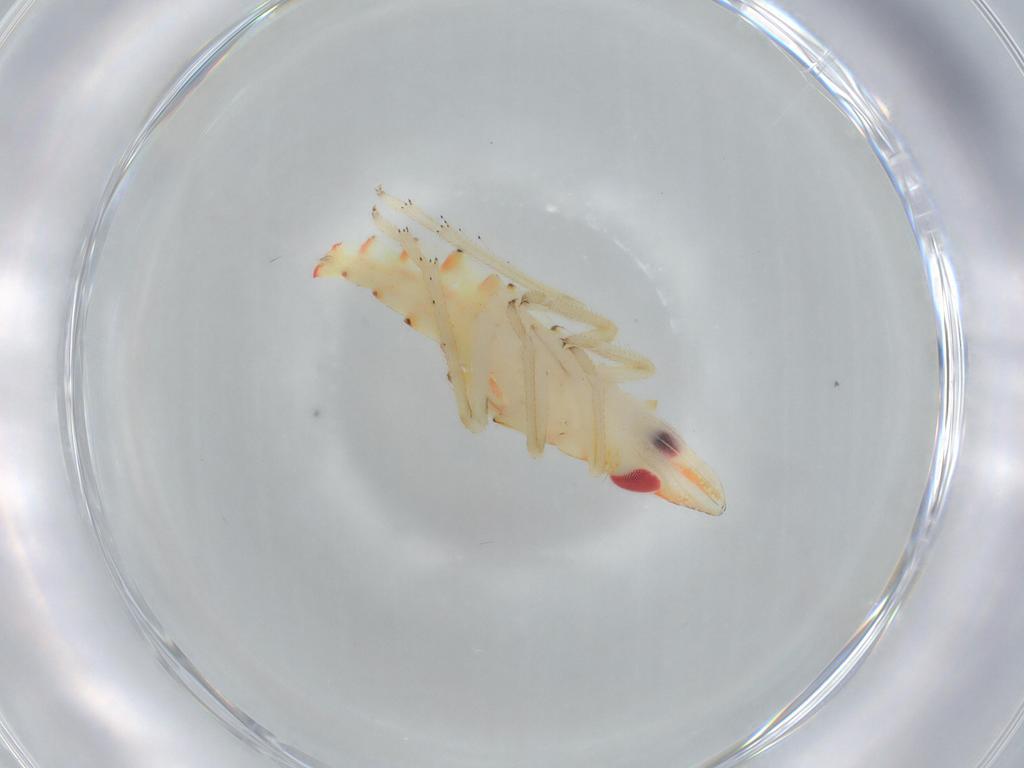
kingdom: Animalia
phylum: Arthropoda
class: Insecta
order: Hemiptera
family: Tropiduchidae
